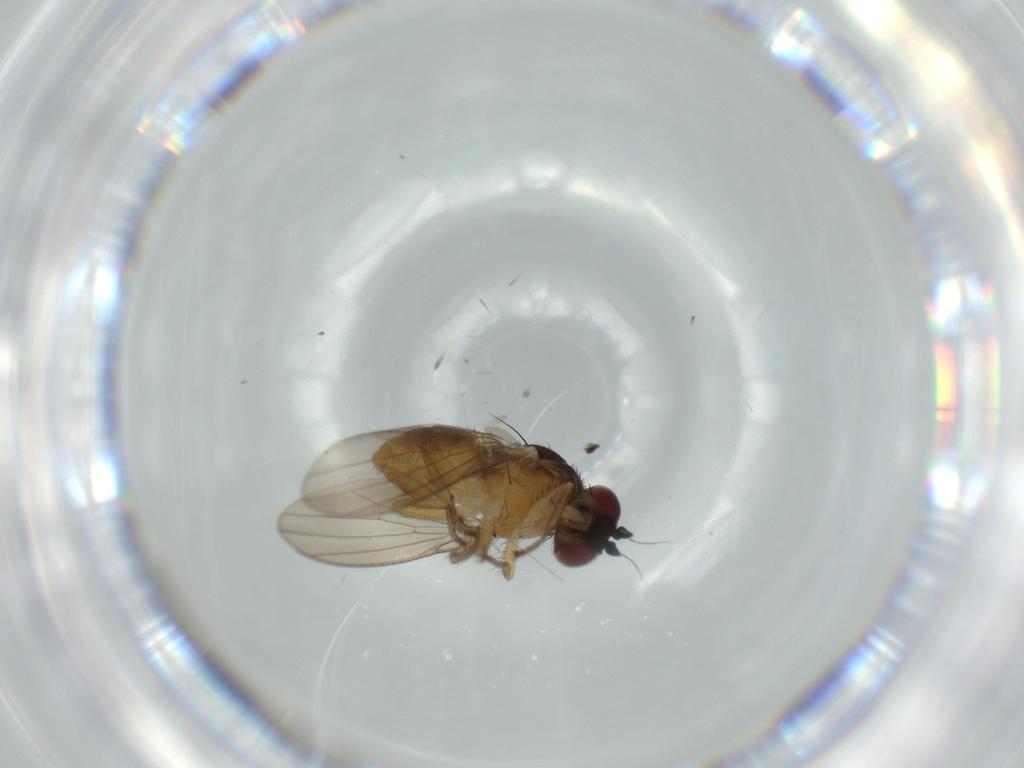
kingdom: Animalia
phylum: Arthropoda
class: Insecta
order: Diptera
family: Cecidomyiidae
